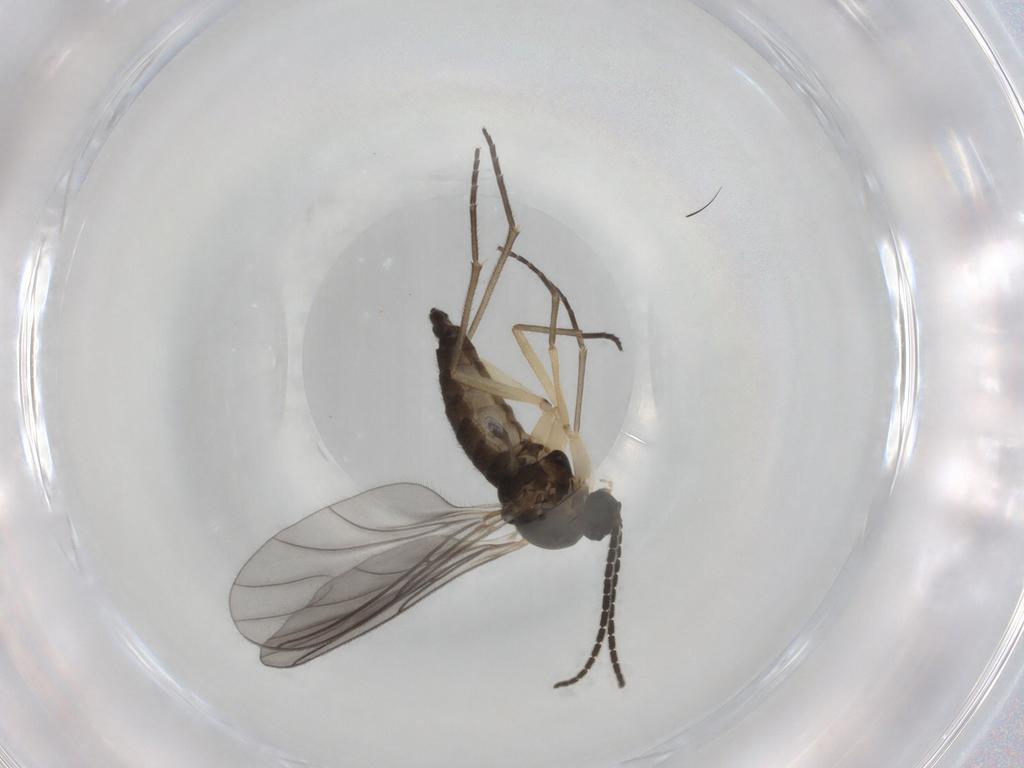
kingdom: Animalia
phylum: Arthropoda
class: Insecta
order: Diptera
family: Sciaridae
